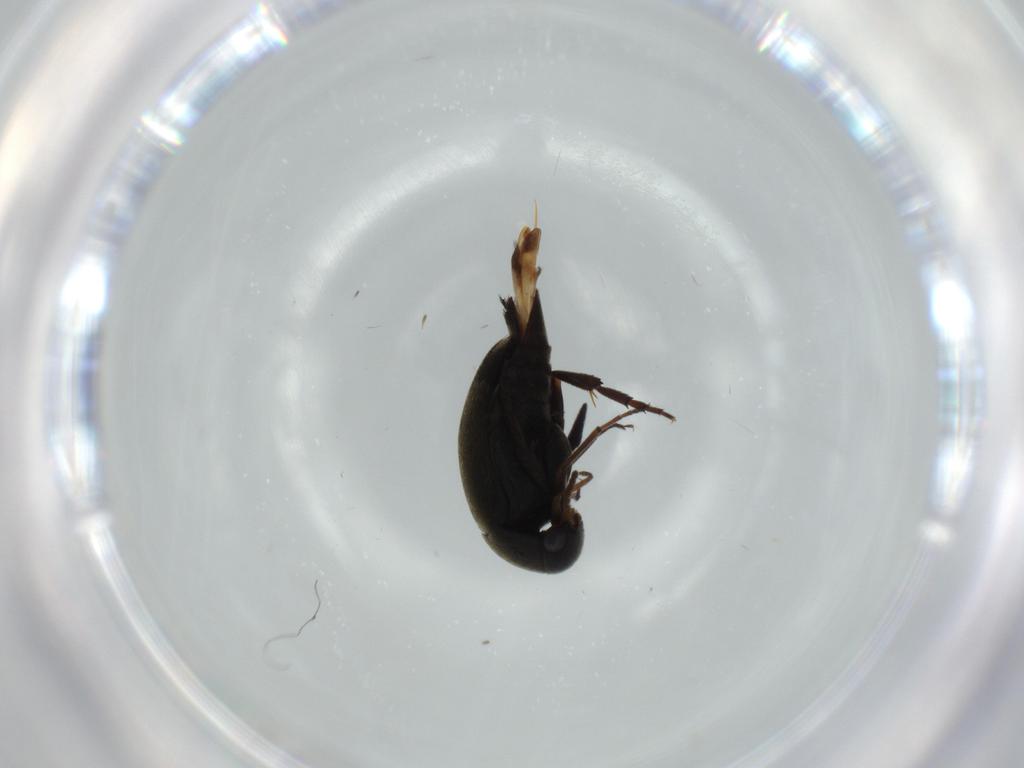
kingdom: Animalia
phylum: Arthropoda
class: Insecta
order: Coleoptera
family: Mordellidae
